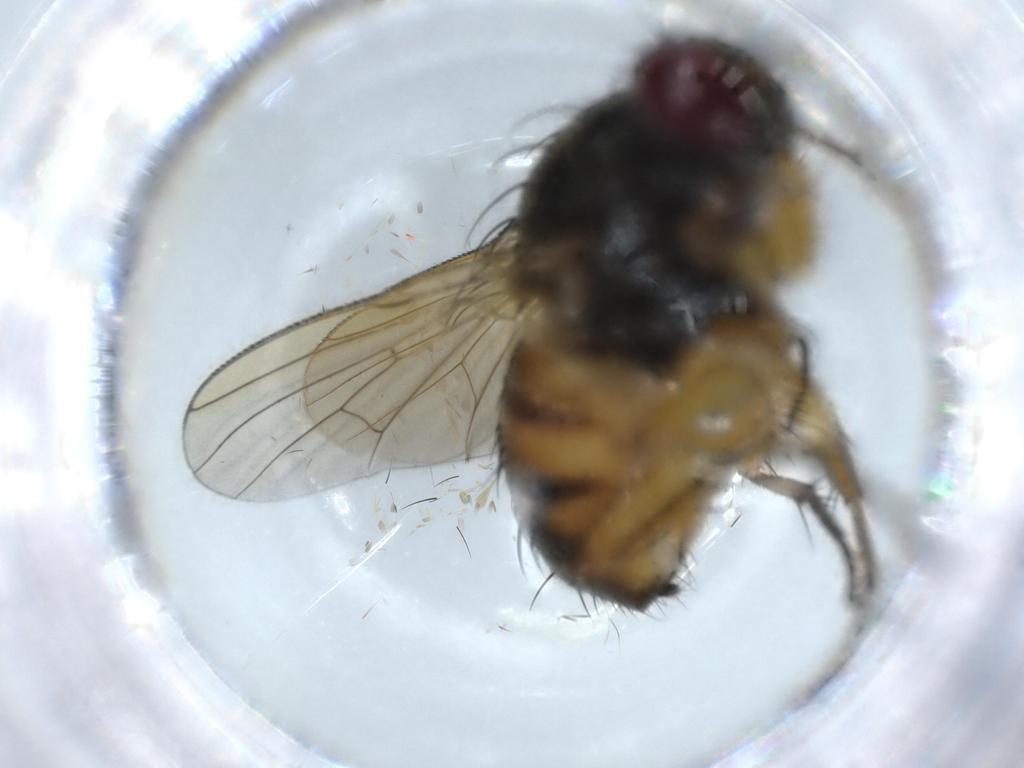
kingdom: Animalia
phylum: Arthropoda
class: Insecta
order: Diptera
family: Muscidae
